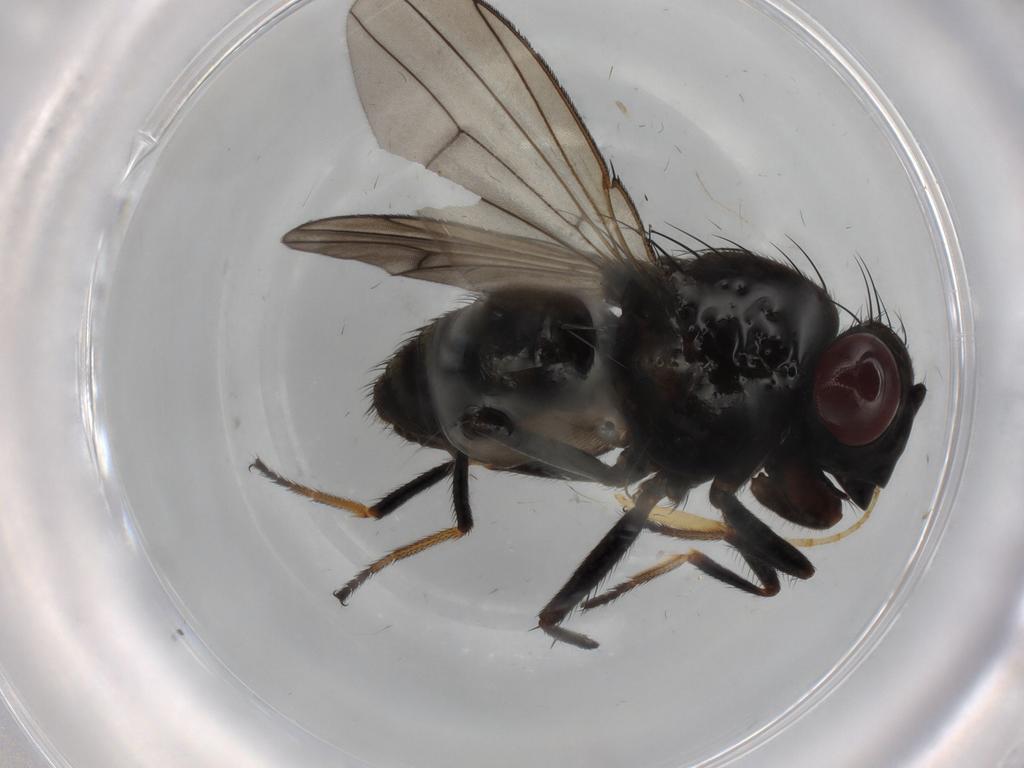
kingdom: Animalia
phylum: Arthropoda
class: Insecta
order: Diptera
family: Ephydridae
